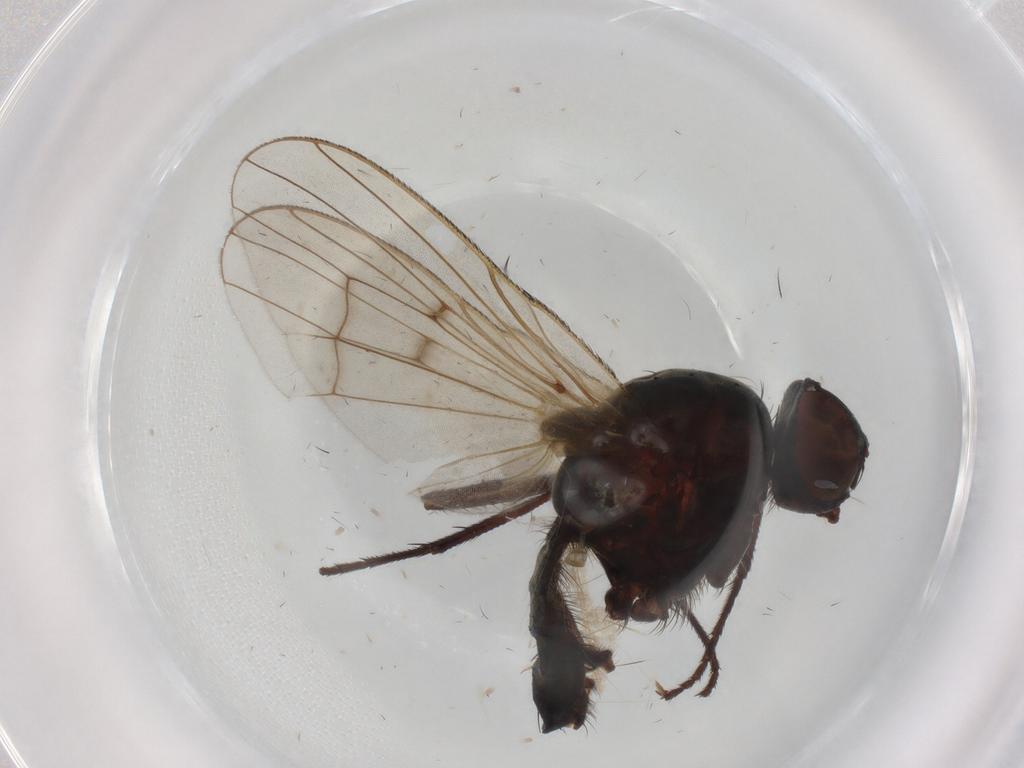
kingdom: Animalia
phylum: Arthropoda
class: Insecta
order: Diptera
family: Anthomyiidae
